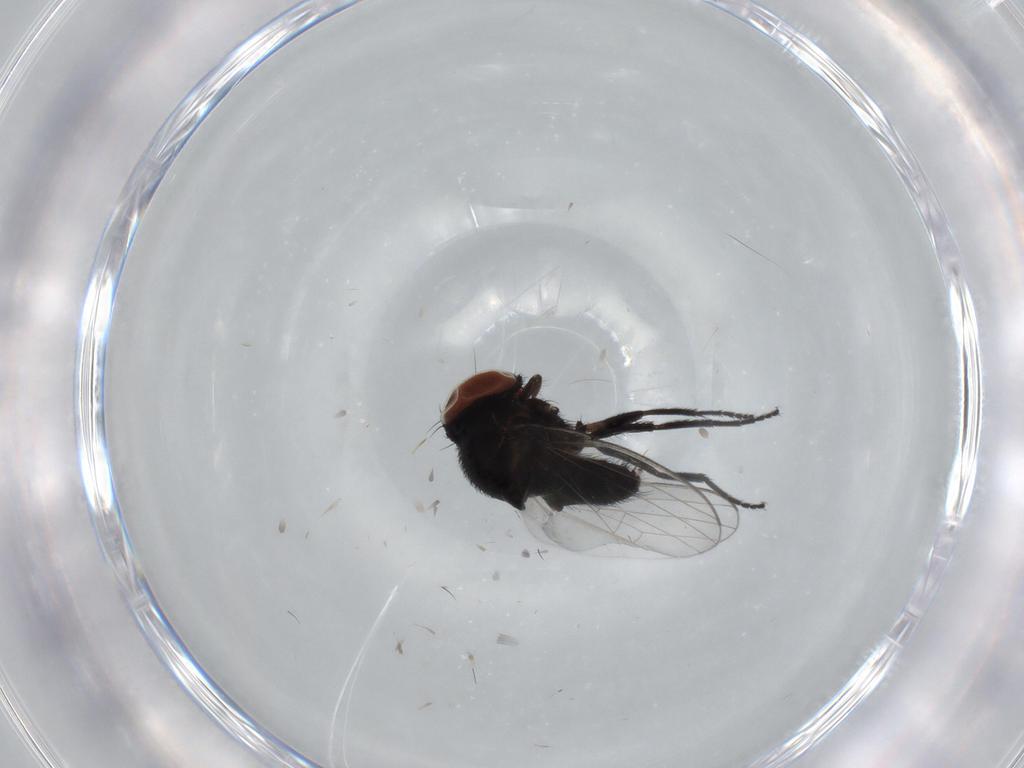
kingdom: Animalia
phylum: Arthropoda
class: Insecta
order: Diptera
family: Milichiidae
